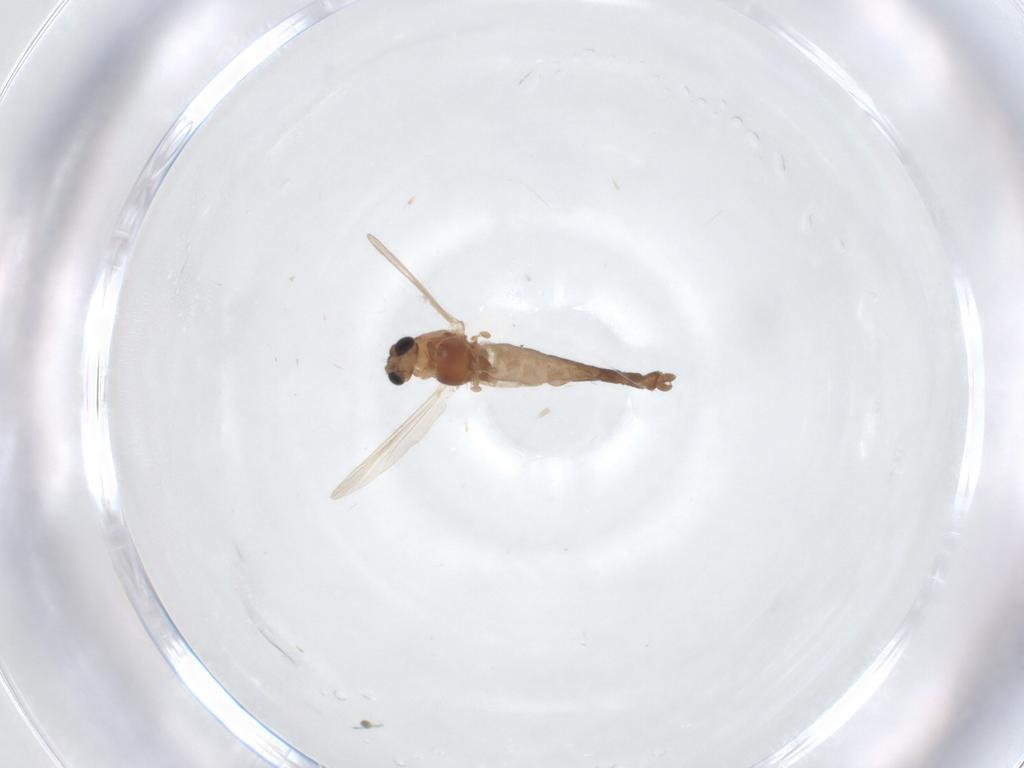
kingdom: Animalia
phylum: Arthropoda
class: Insecta
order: Diptera
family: Chironomidae
